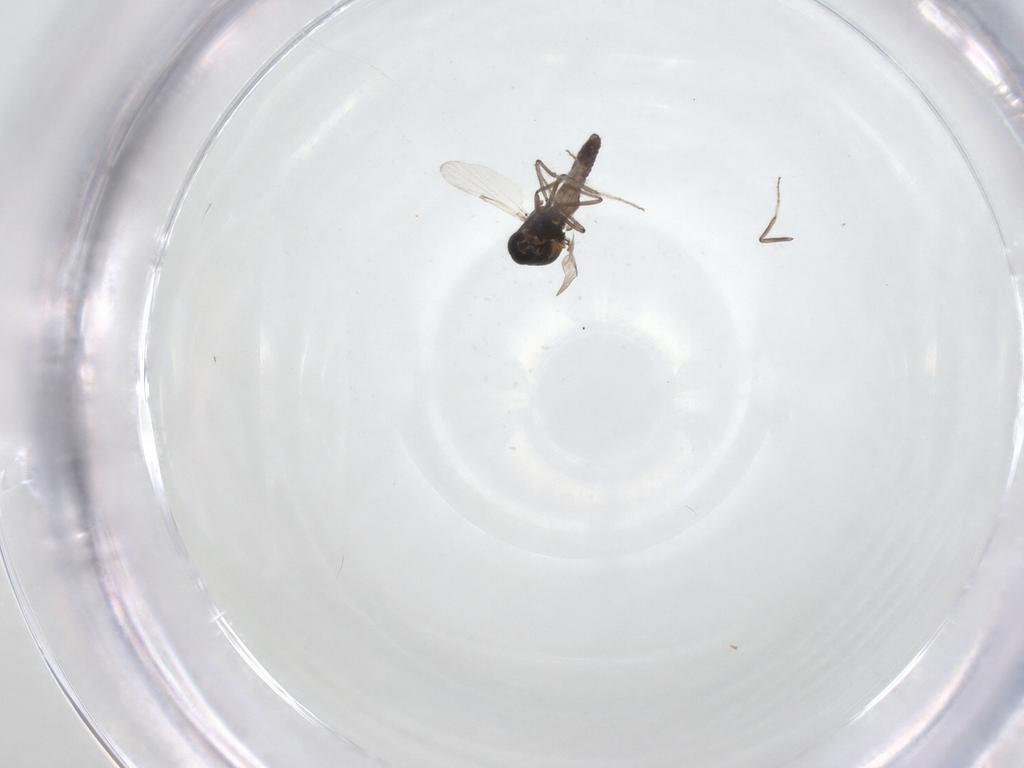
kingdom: Animalia
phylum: Arthropoda
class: Insecta
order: Diptera
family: Ceratopogonidae
